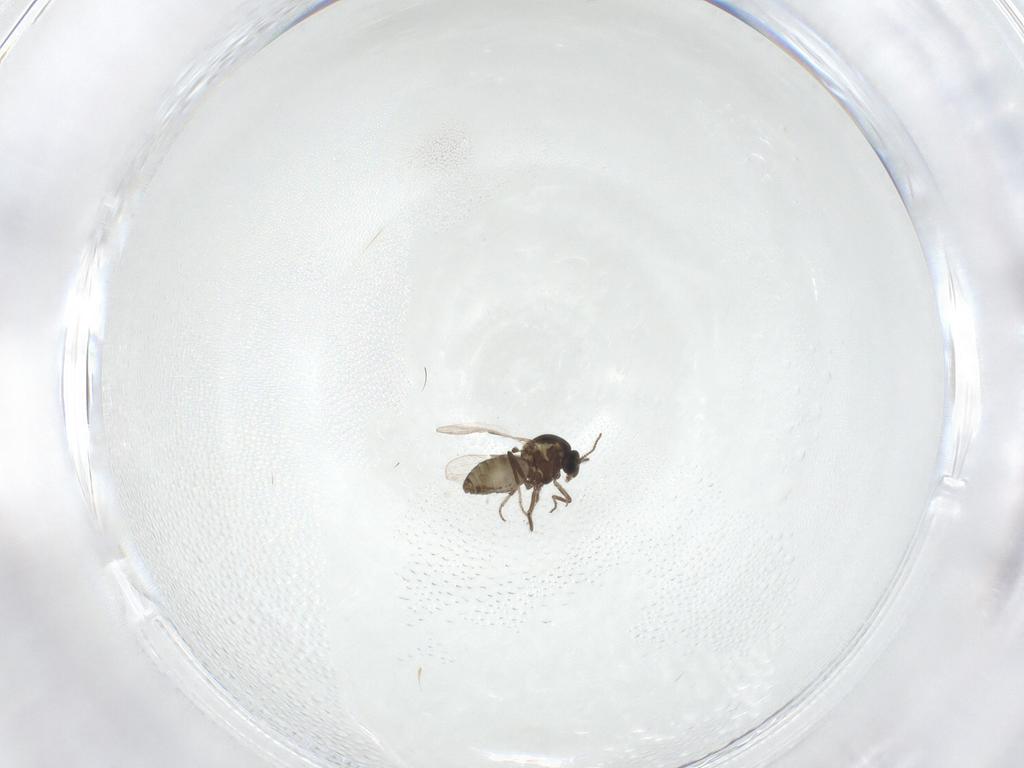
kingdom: Animalia
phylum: Arthropoda
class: Insecta
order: Diptera
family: Ceratopogonidae
